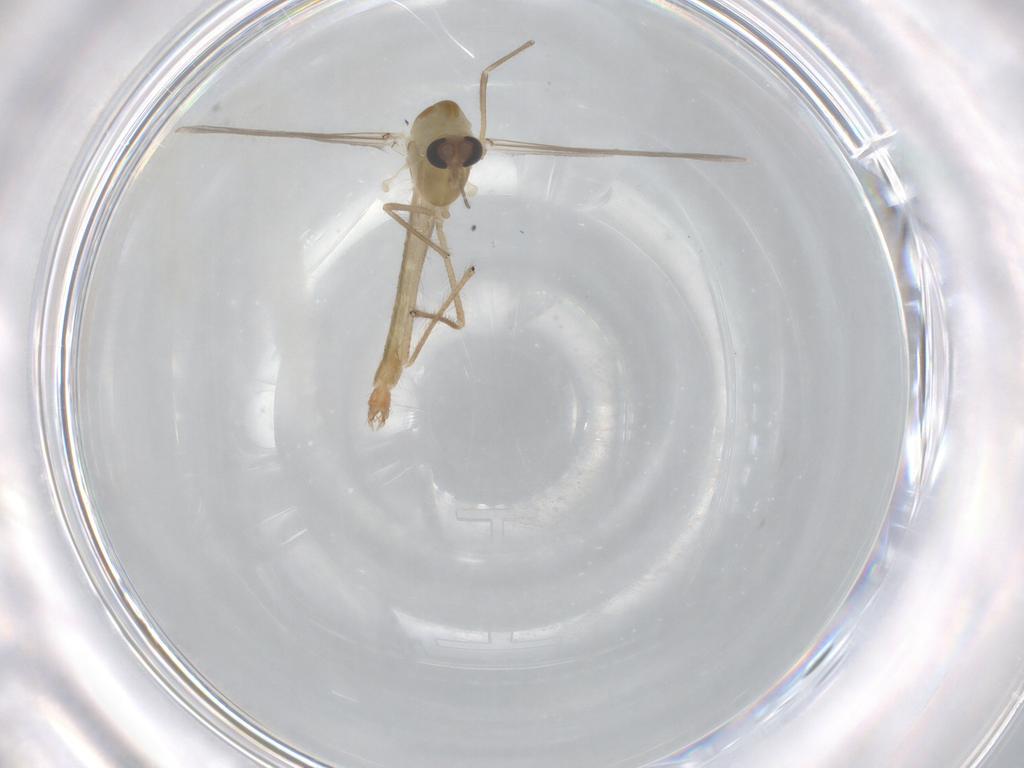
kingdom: Animalia
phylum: Arthropoda
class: Insecta
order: Diptera
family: Chironomidae
